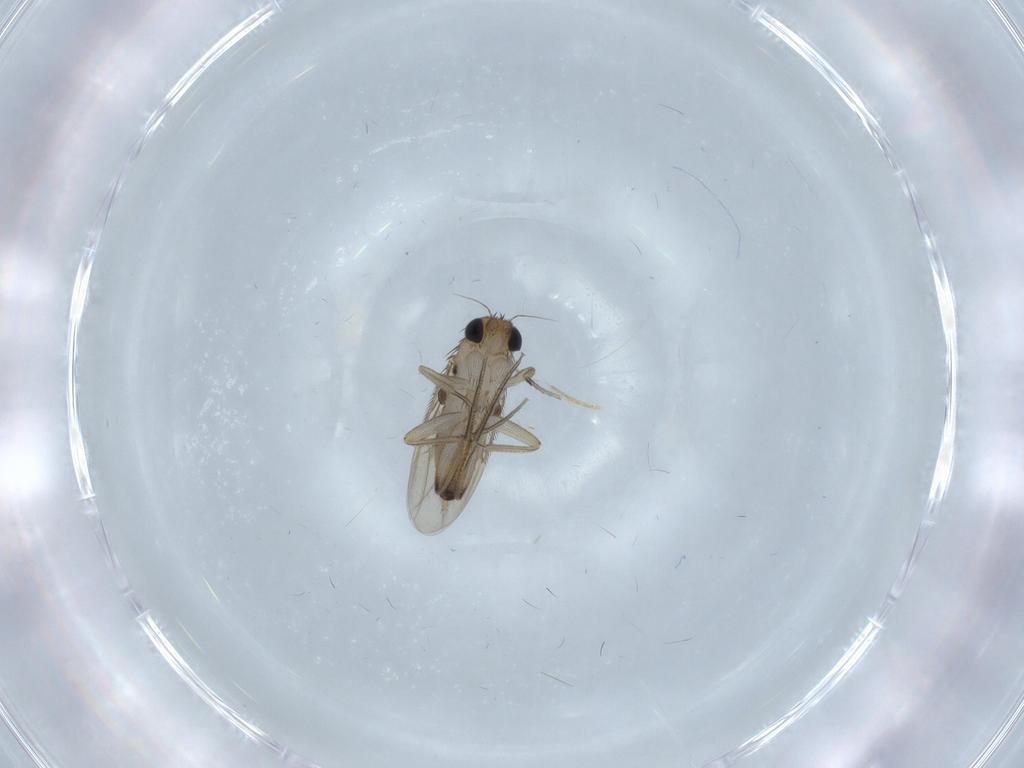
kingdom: Animalia
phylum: Arthropoda
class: Insecta
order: Diptera
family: Phoridae
